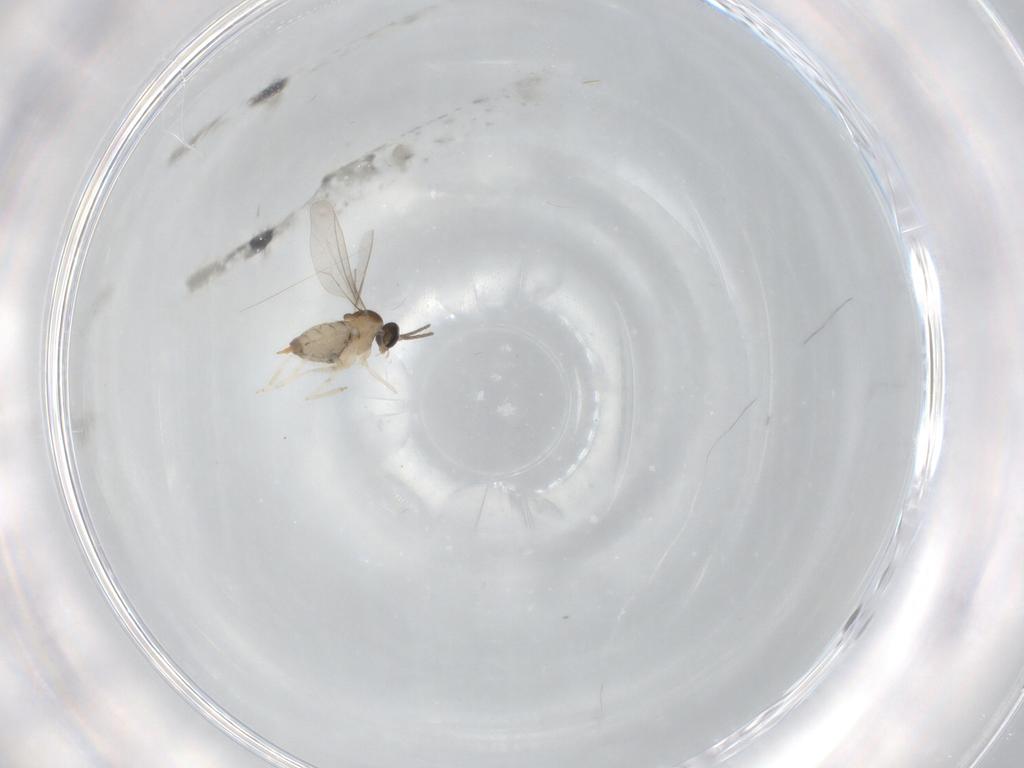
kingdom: Animalia
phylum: Arthropoda
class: Insecta
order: Diptera
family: Cecidomyiidae
